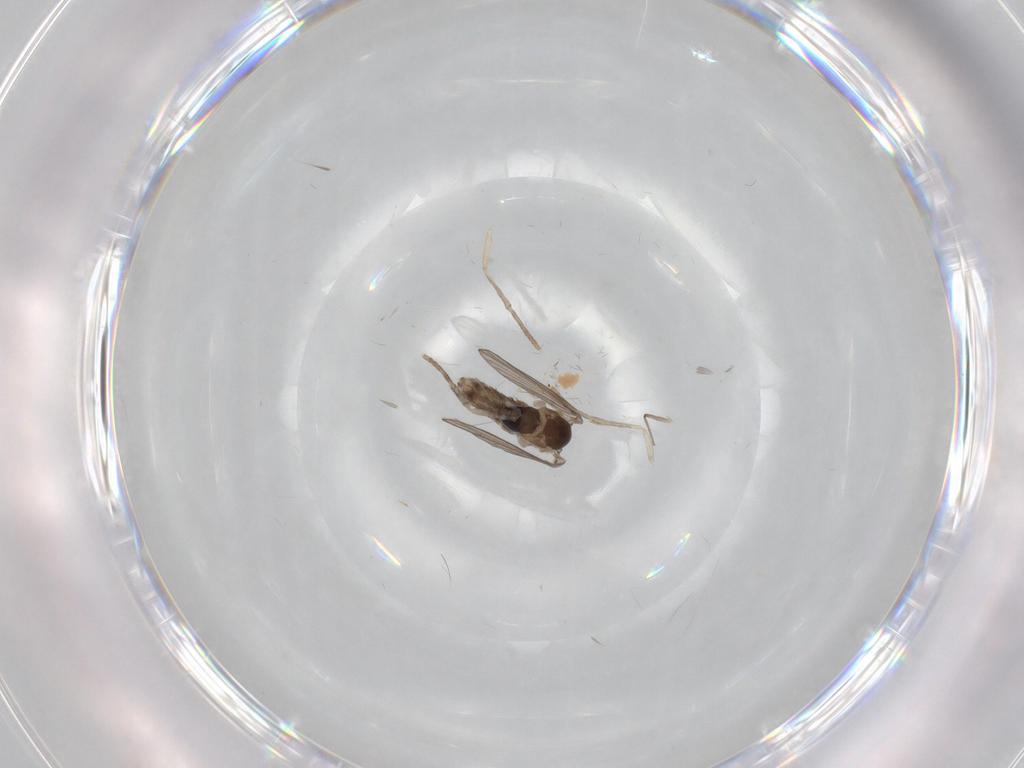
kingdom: Animalia
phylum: Arthropoda
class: Insecta
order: Diptera
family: Chironomidae
